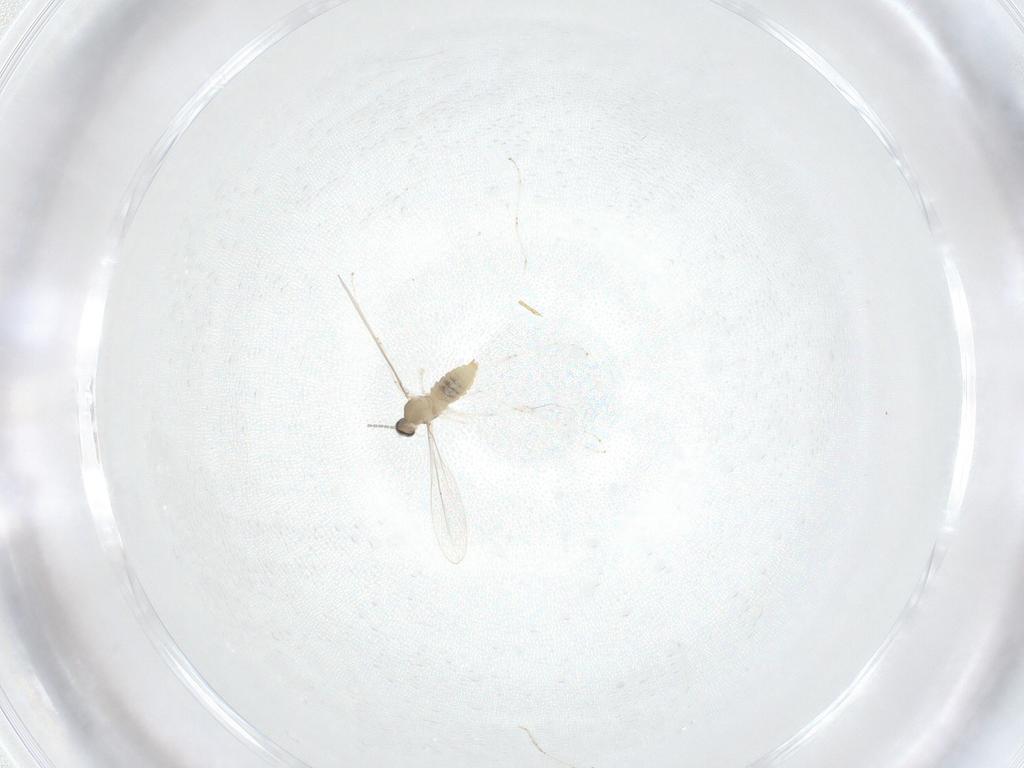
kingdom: Animalia
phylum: Arthropoda
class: Insecta
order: Diptera
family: Cecidomyiidae
